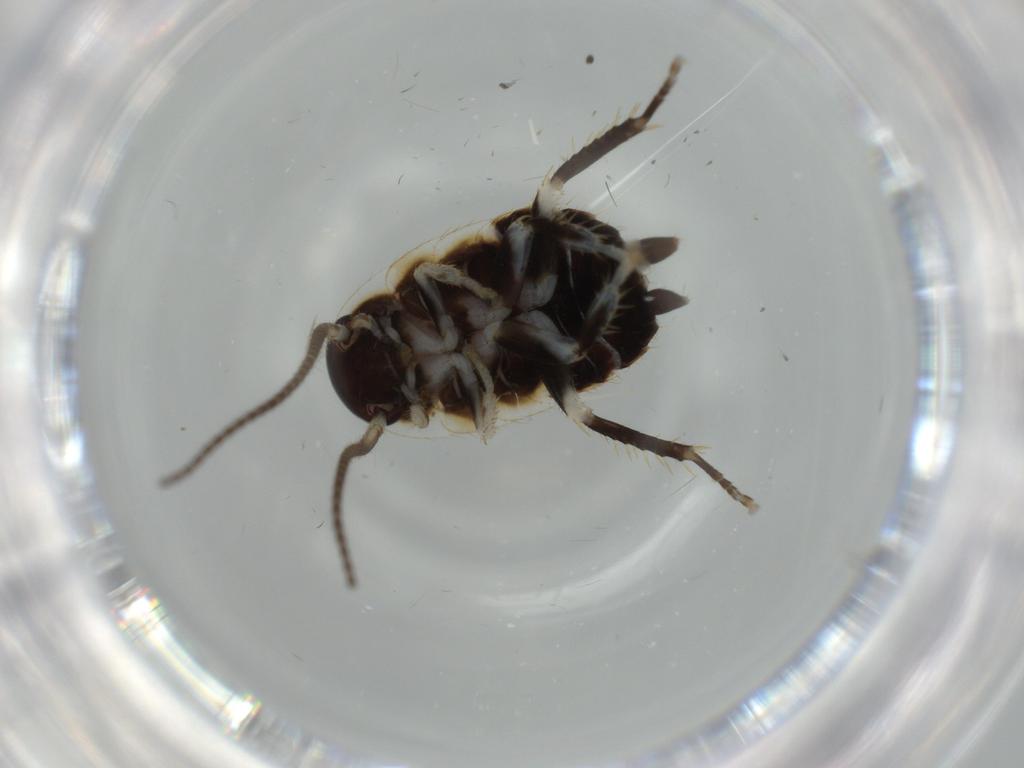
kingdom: Animalia
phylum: Arthropoda
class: Insecta
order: Blattodea
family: Ectobiidae
